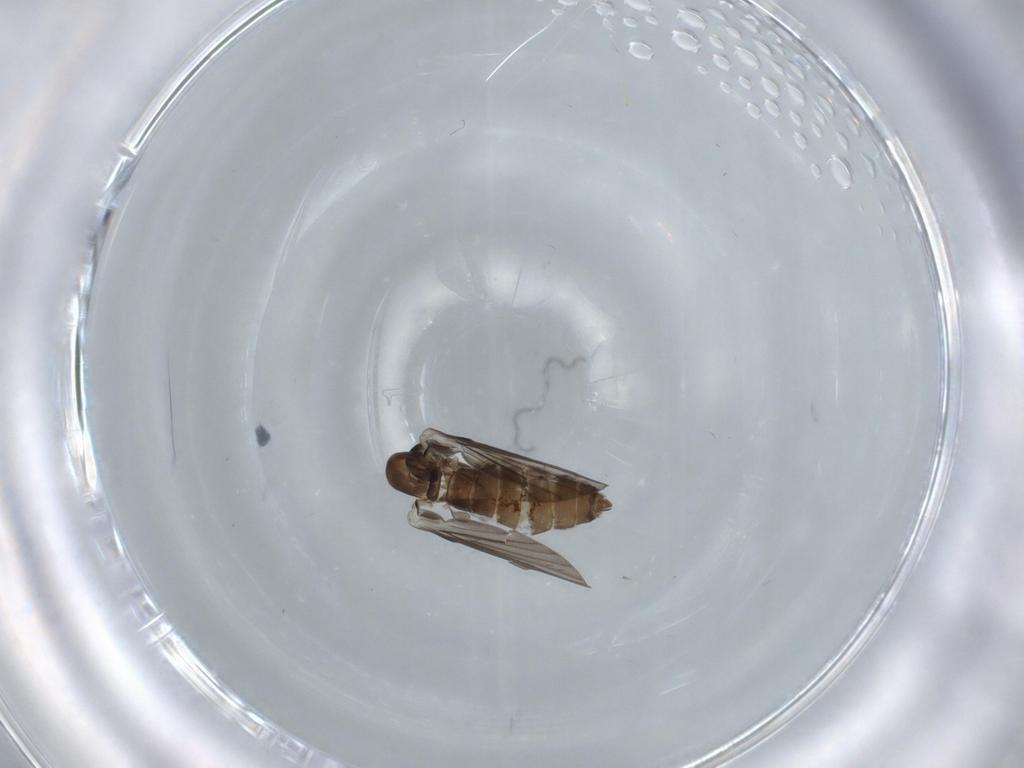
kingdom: Animalia
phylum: Arthropoda
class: Insecta
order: Diptera
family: Psychodidae
